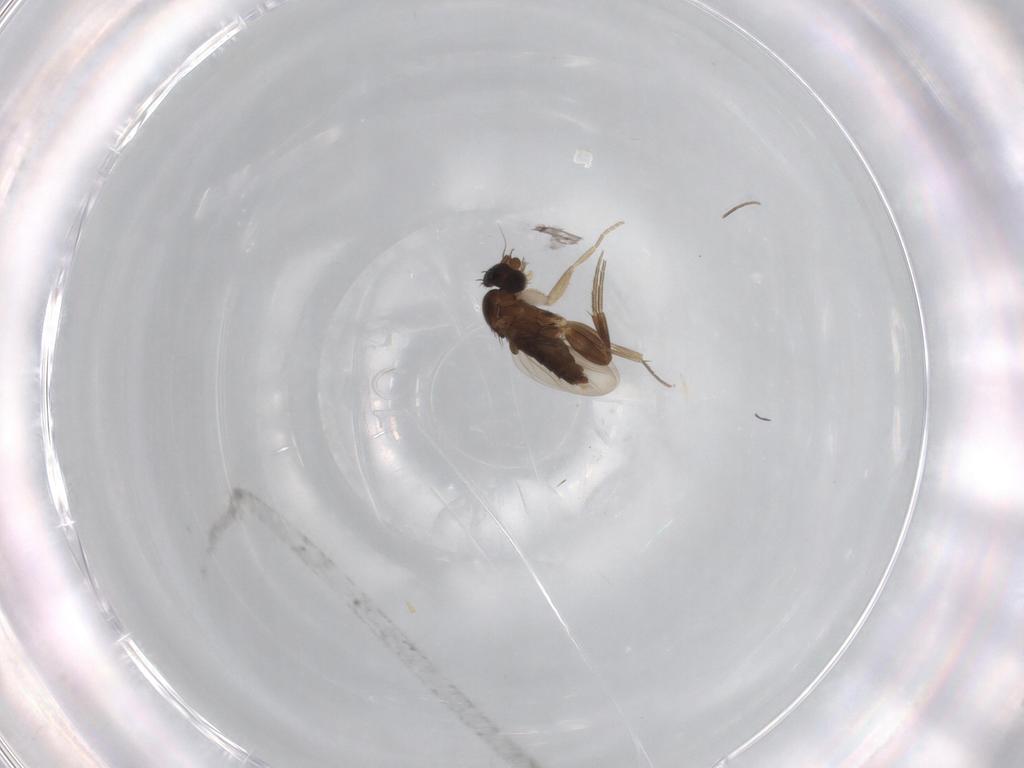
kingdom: Animalia
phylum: Arthropoda
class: Insecta
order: Diptera
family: Phoridae
